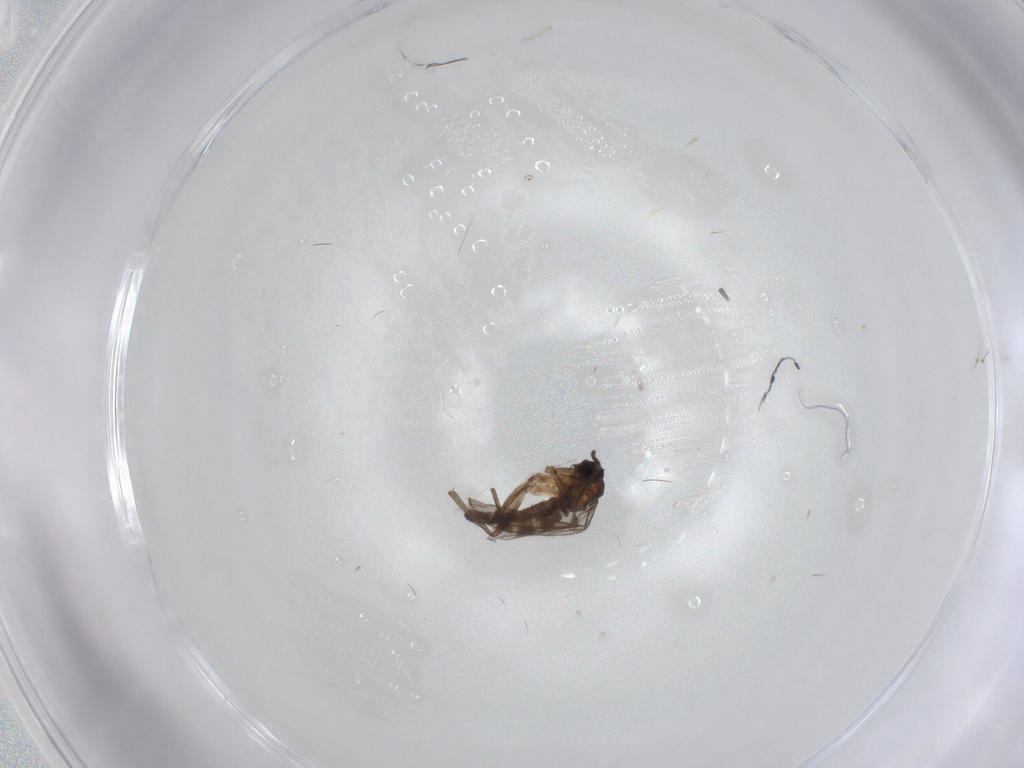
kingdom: Animalia
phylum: Arthropoda
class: Insecta
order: Diptera
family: Sciaridae
